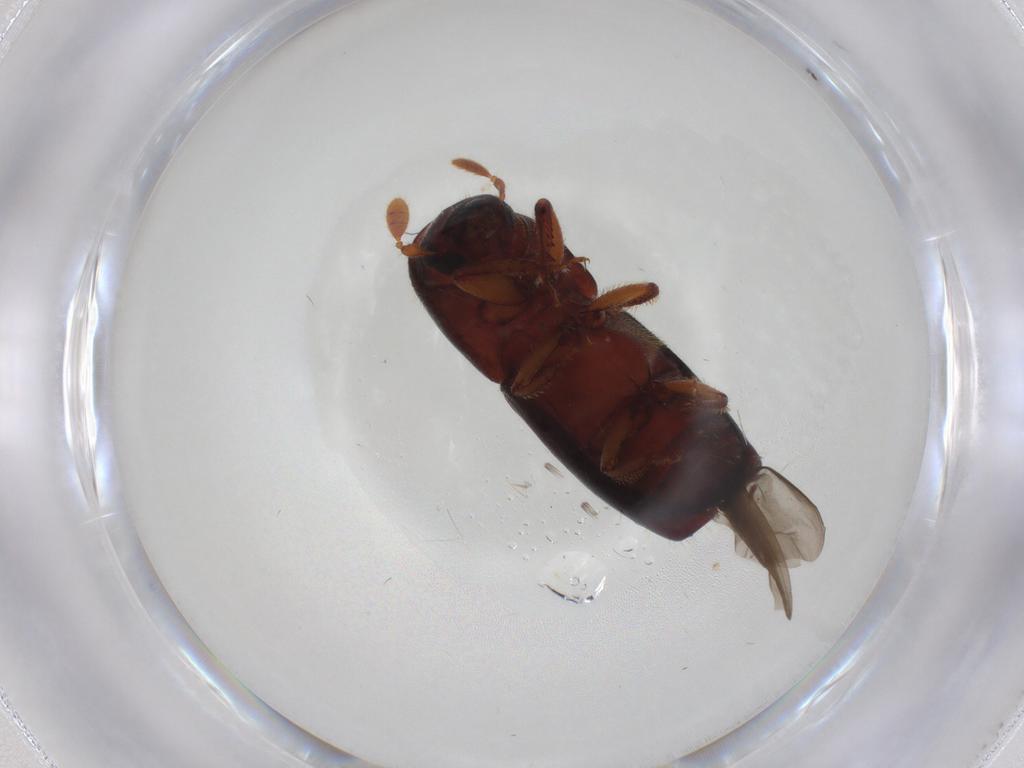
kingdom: Animalia
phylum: Arthropoda
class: Insecta
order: Coleoptera
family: Curculionidae
